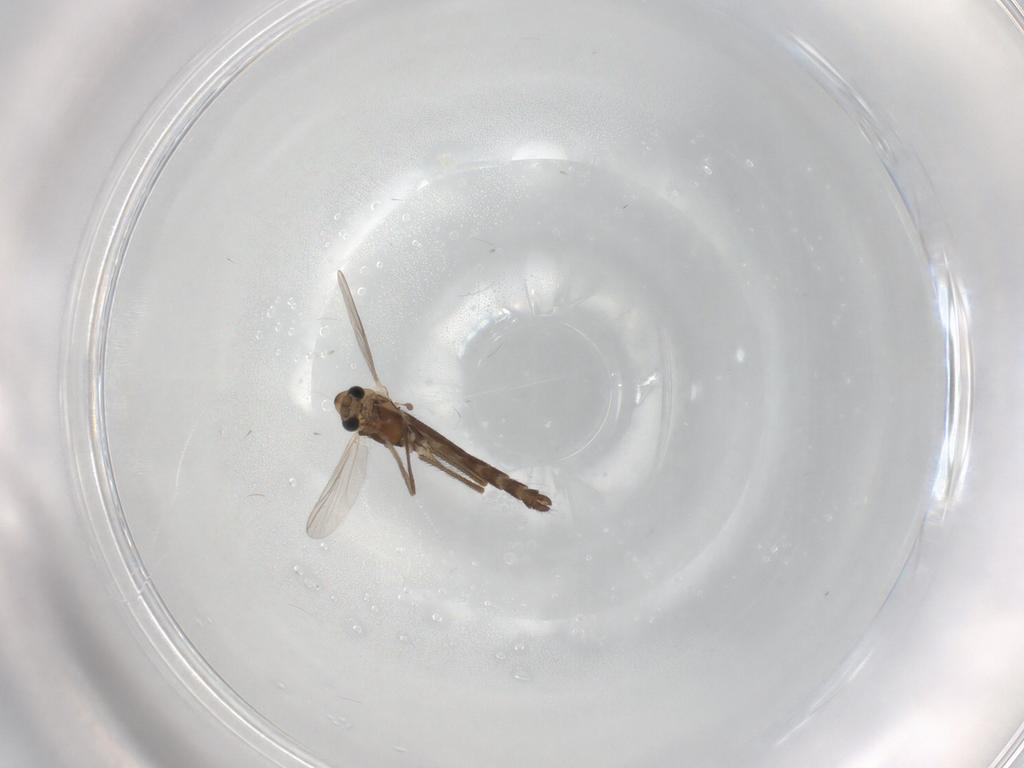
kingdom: Animalia
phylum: Arthropoda
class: Insecta
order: Diptera
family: Chironomidae
